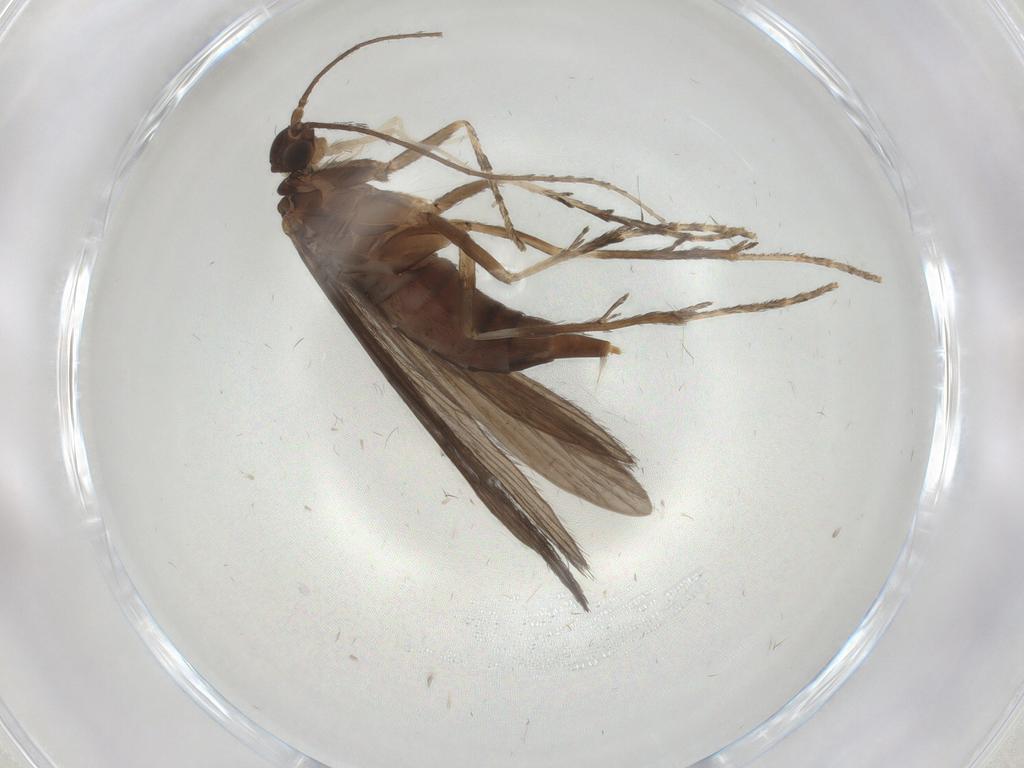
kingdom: Animalia
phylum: Arthropoda
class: Insecta
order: Trichoptera
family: Xiphocentronidae
